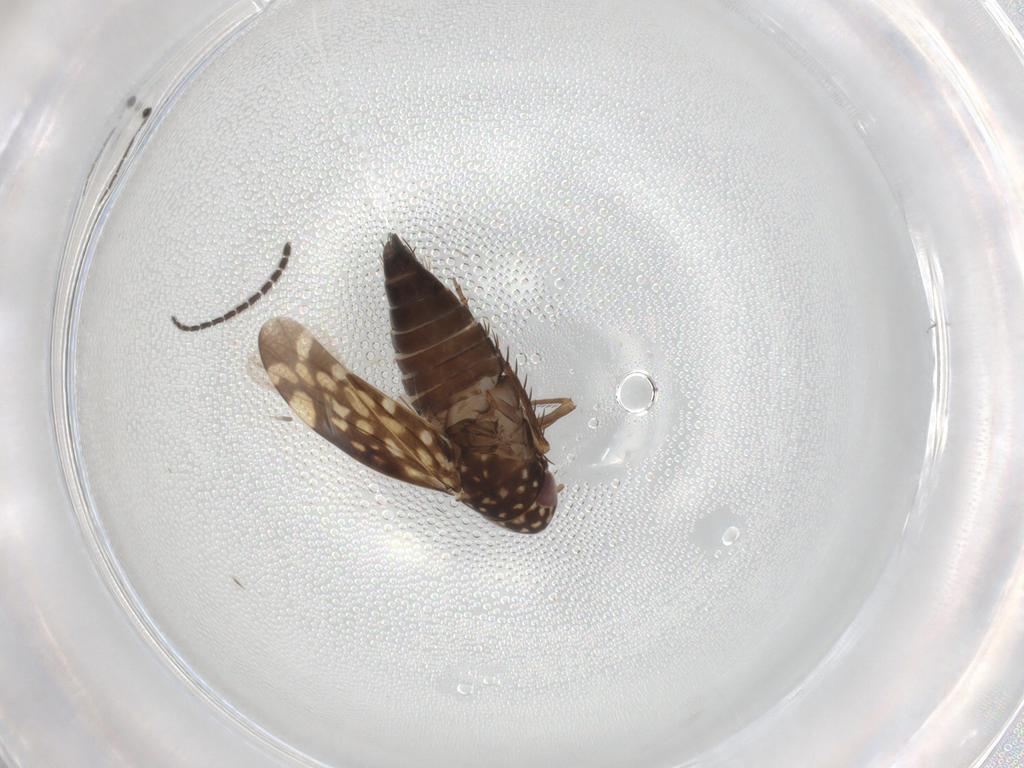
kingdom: Animalia
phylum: Arthropoda
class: Insecta
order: Hemiptera
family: Cicadellidae
